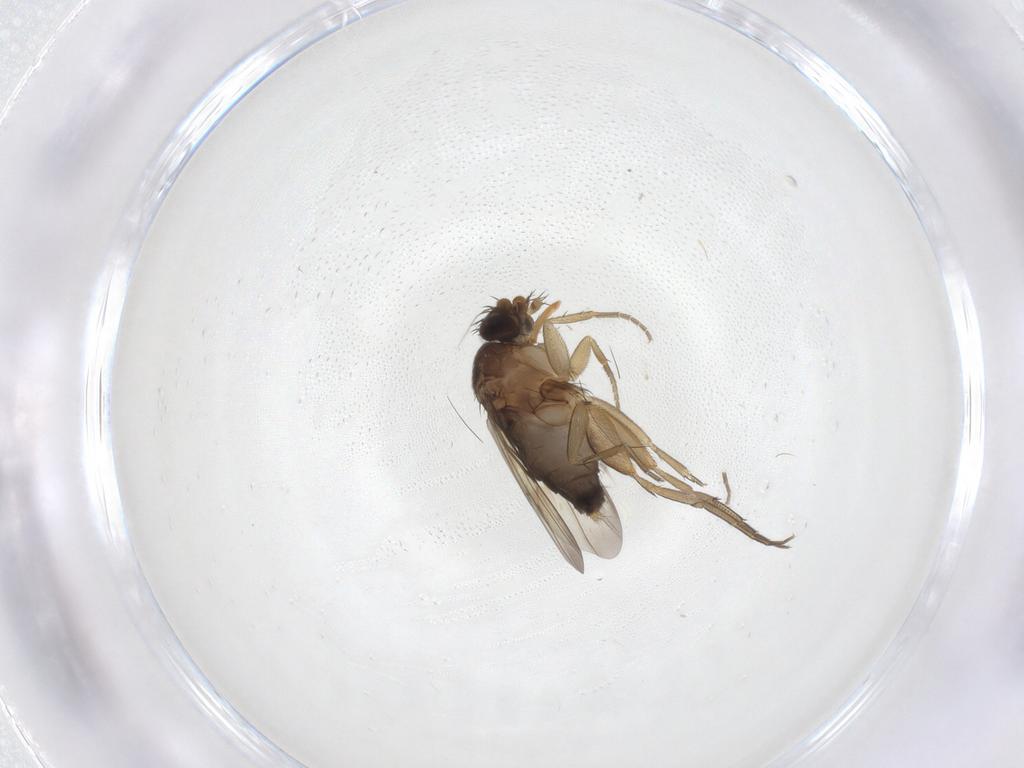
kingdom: Animalia
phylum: Arthropoda
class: Insecta
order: Diptera
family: Phoridae
